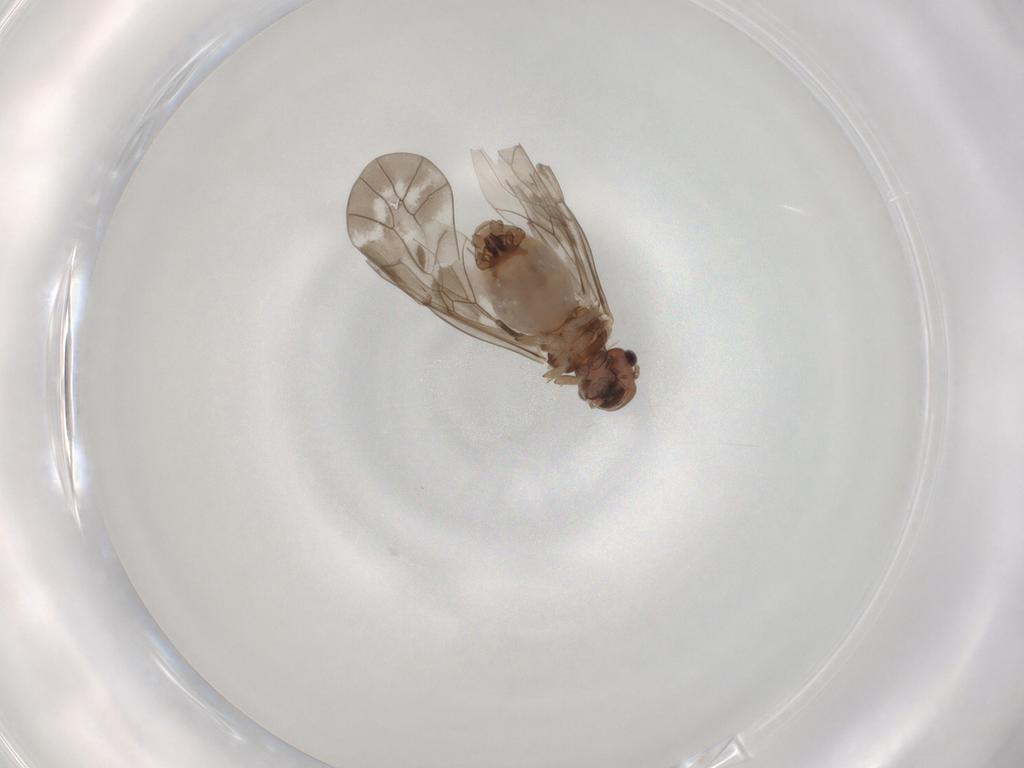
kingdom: Animalia
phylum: Arthropoda
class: Insecta
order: Psocodea
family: Peripsocidae
